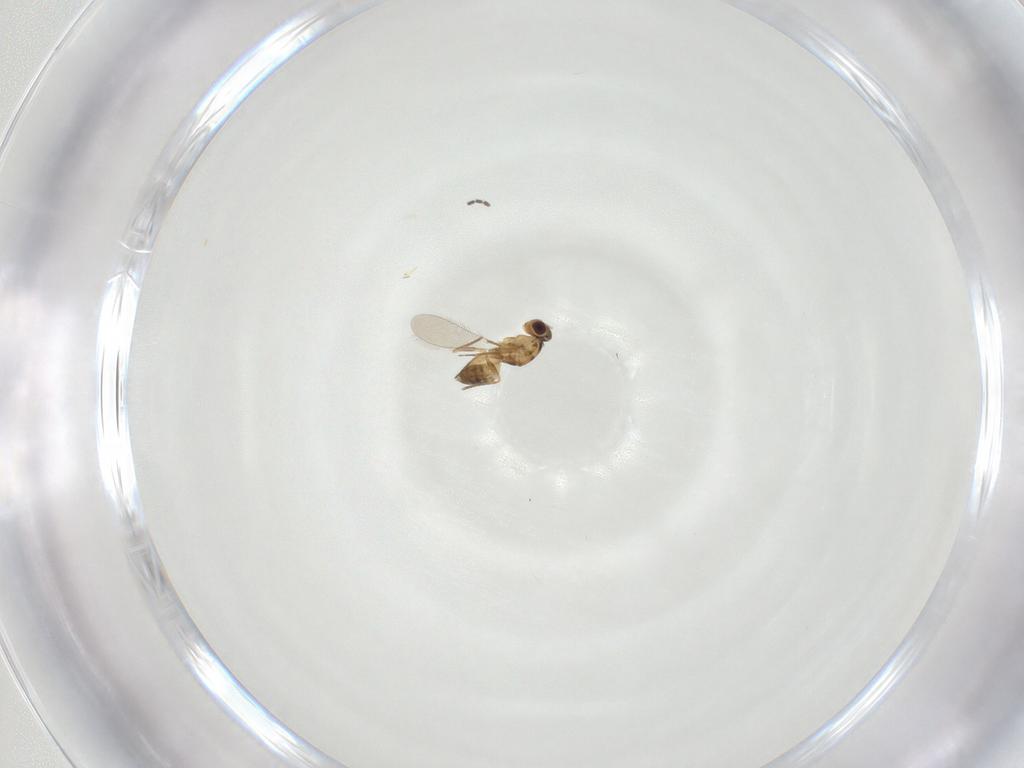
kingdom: Animalia
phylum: Arthropoda
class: Insecta
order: Hymenoptera
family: Mymaridae
